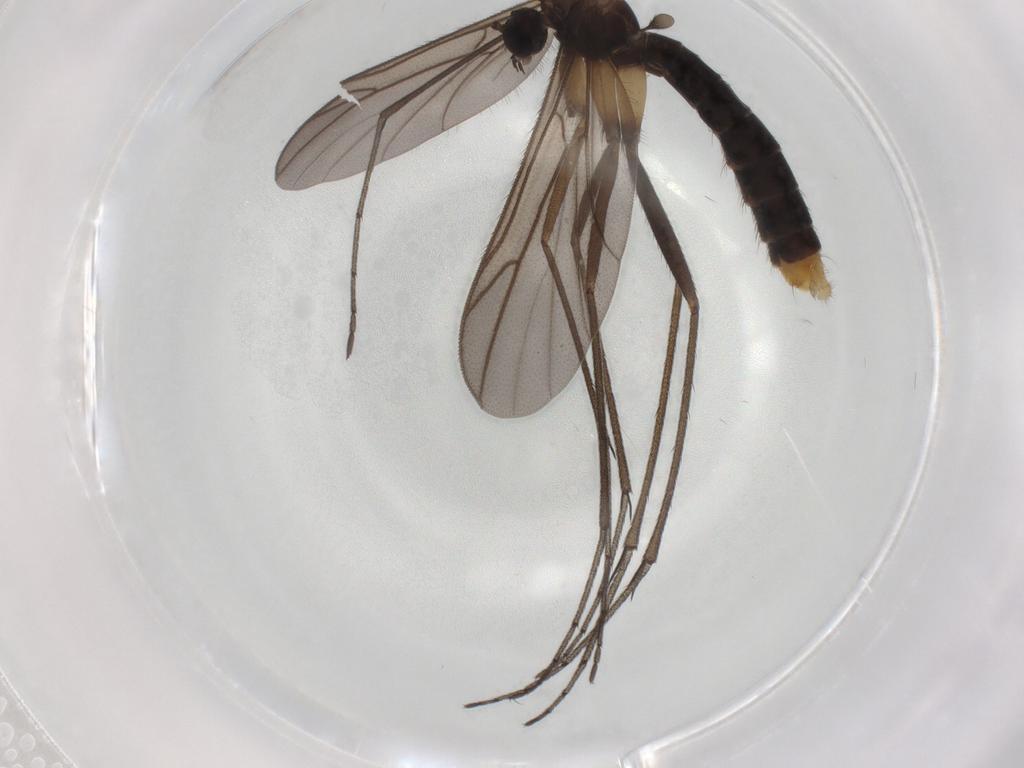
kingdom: Animalia
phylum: Arthropoda
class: Insecta
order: Diptera
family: Ditomyiidae
